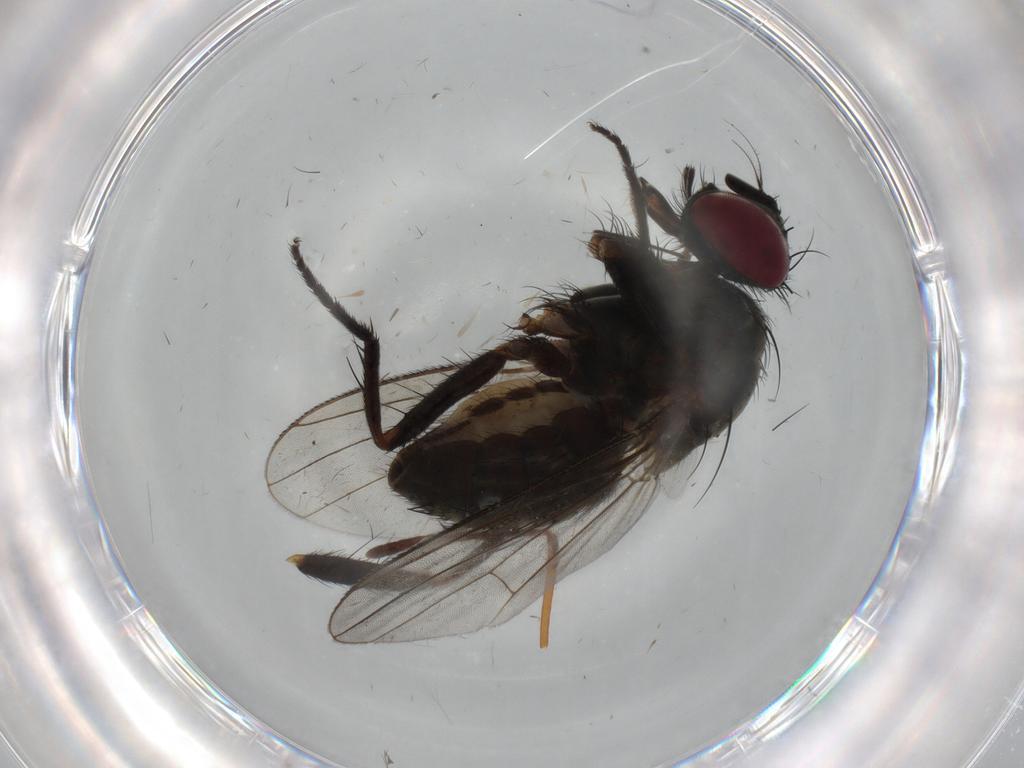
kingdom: Animalia
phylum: Arthropoda
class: Insecta
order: Diptera
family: Muscidae
